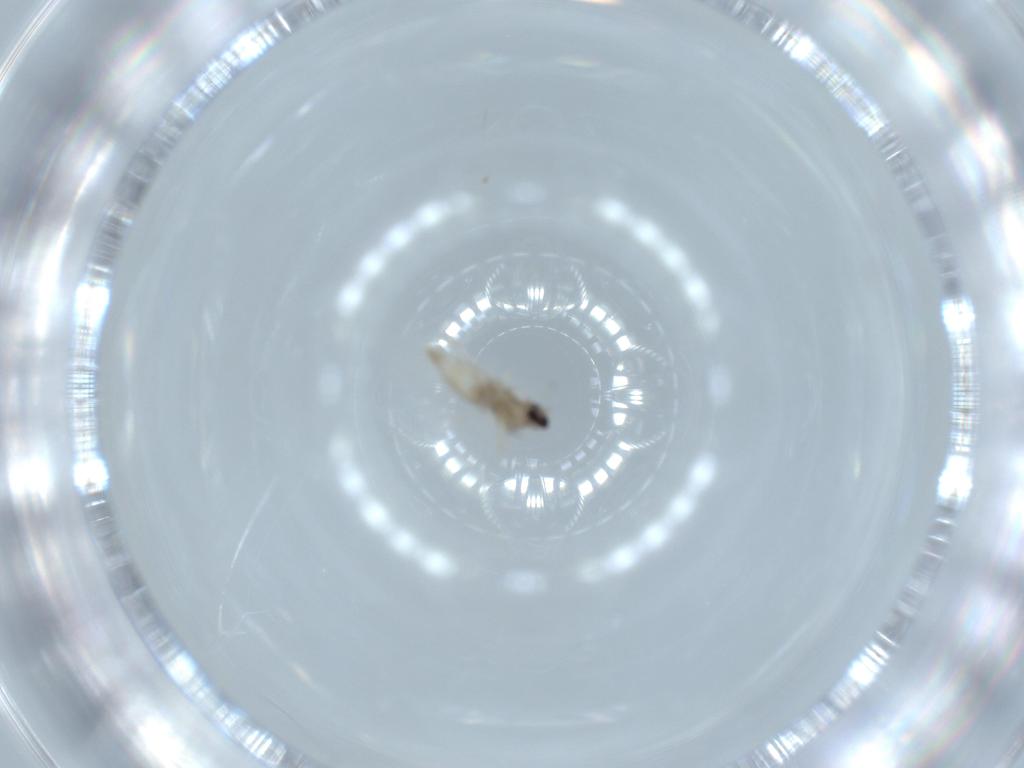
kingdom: Animalia
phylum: Arthropoda
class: Insecta
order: Diptera
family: Cecidomyiidae
